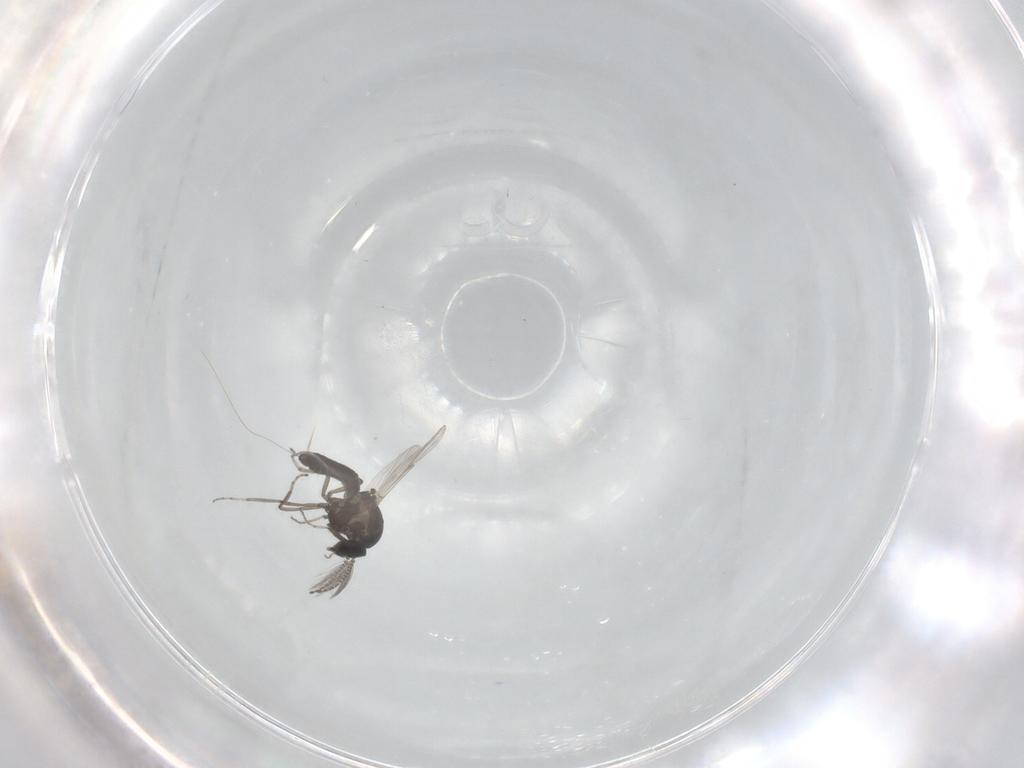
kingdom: Animalia
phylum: Arthropoda
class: Insecta
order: Diptera
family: Ceratopogonidae
